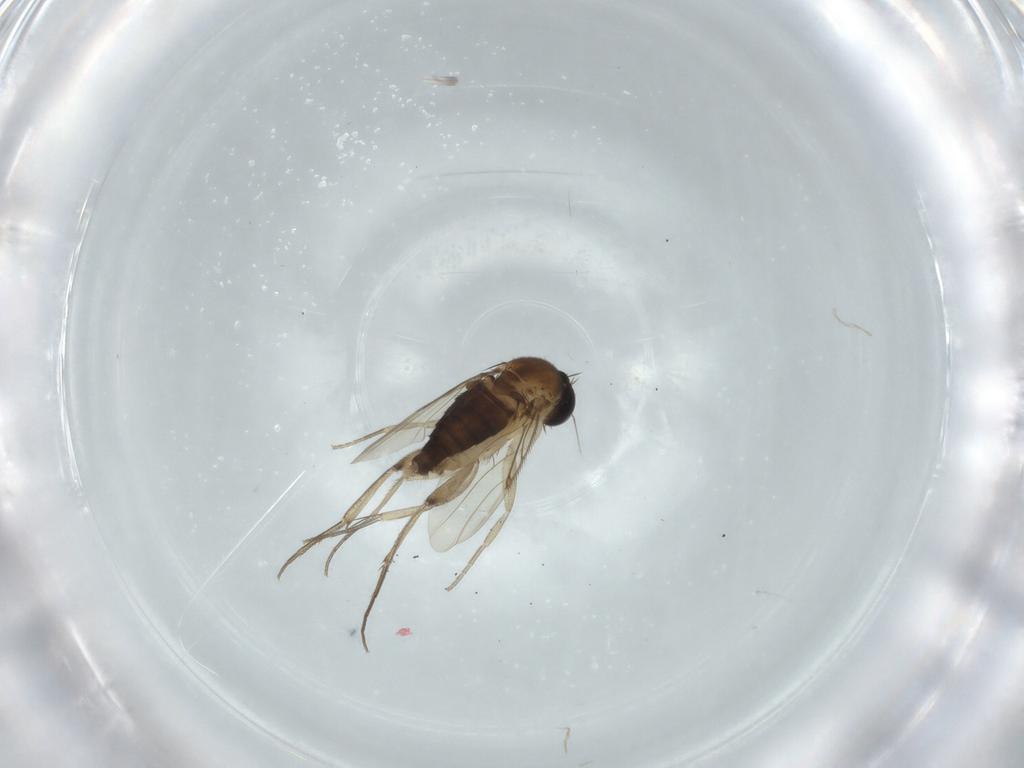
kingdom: Animalia
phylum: Arthropoda
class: Insecta
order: Diptera
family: Phoridae
